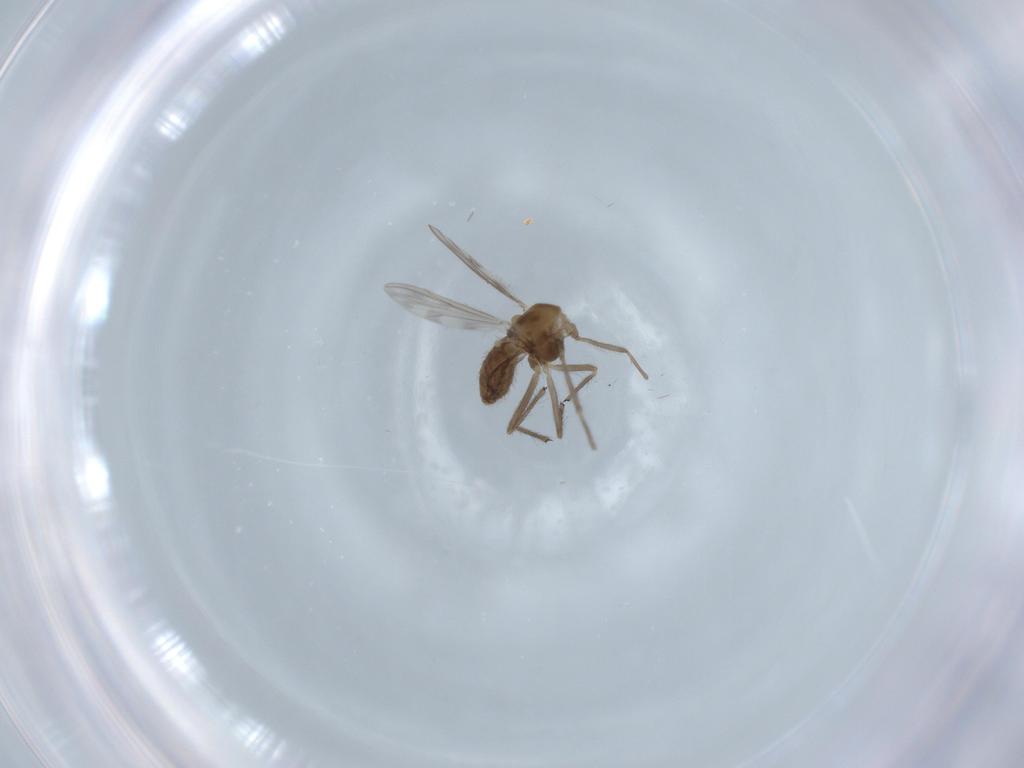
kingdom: Animalia
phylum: Arthropoda
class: Insecta
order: Diptera
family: Chironomidae
